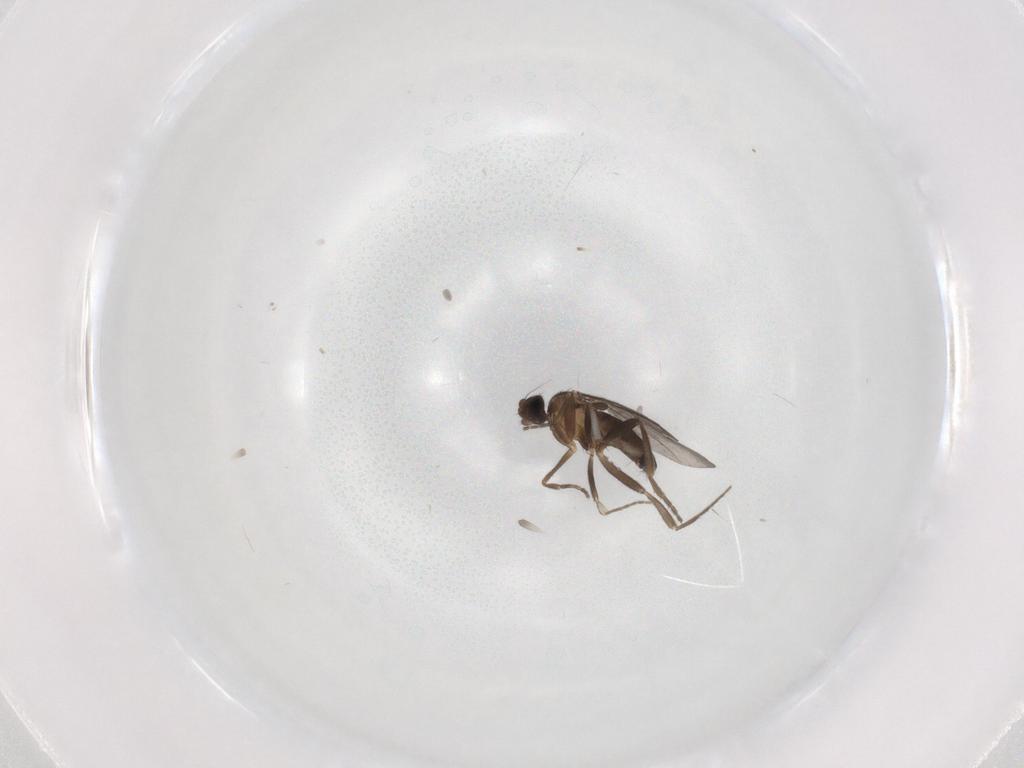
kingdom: Animalia
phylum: Arthropoda
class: Insecta
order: Diptera
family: Phoridae
